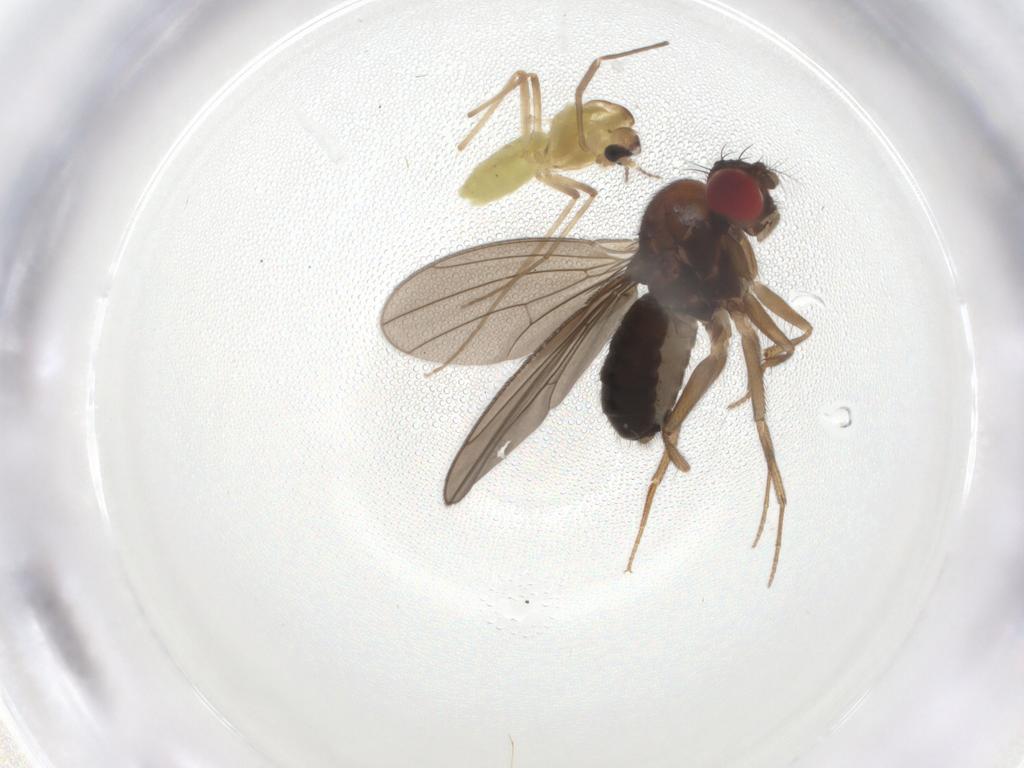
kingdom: Animalia
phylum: Arthropoda
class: Insecta
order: Diptera
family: Drosophilidae
